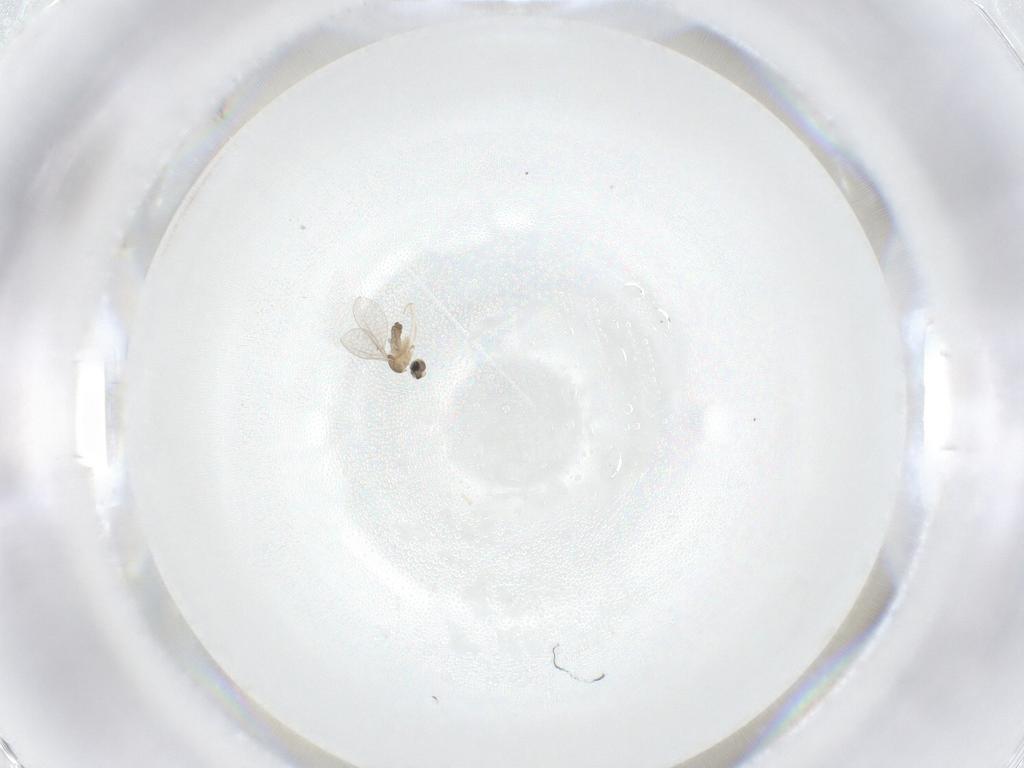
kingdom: Animalia
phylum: Arthropoda
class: Insecta
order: Diptera
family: Cecidomyiidae
